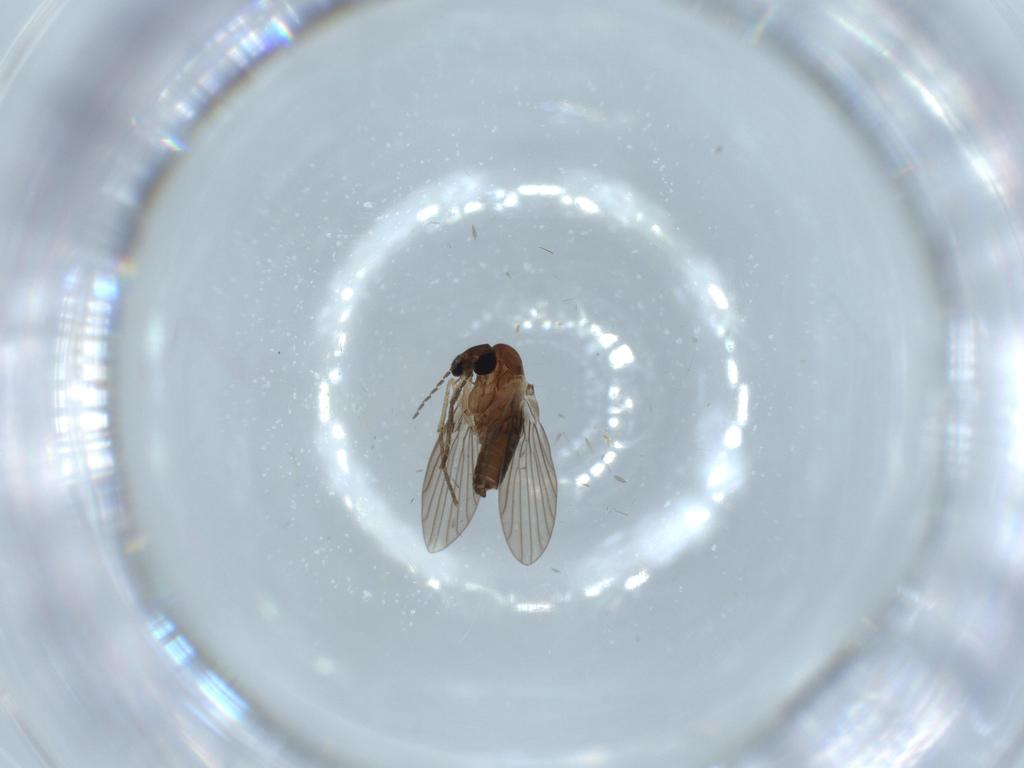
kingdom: Animalia
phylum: Arthropoda
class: Insecta
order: Diptera
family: Psychodidae
